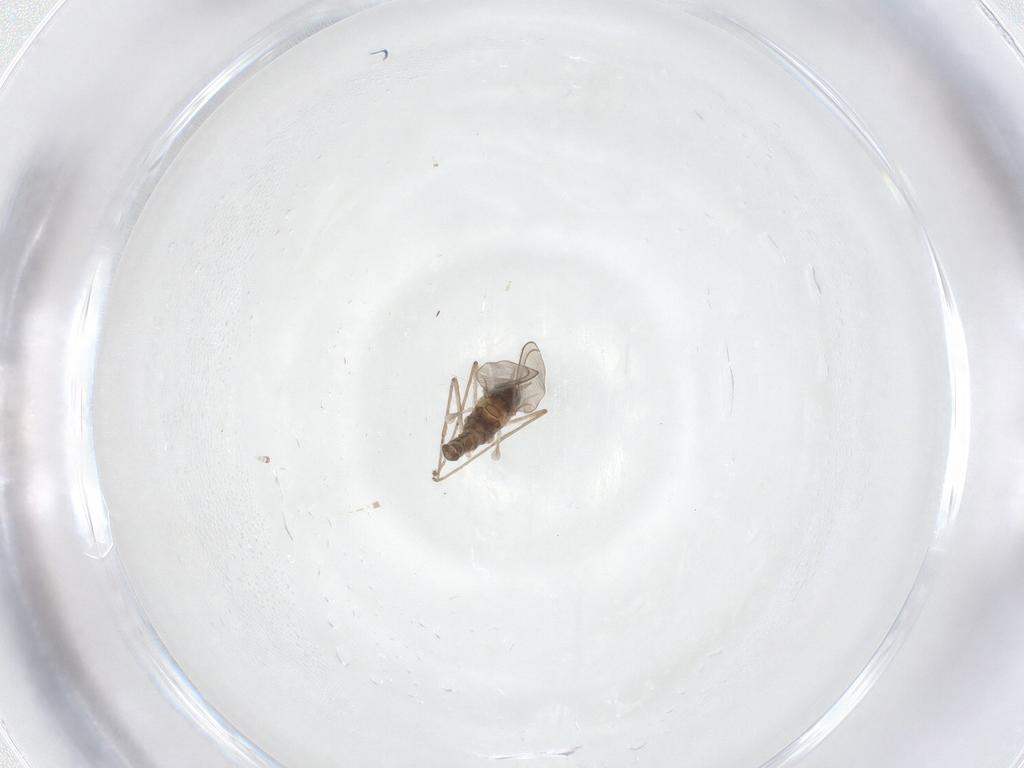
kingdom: Animalia
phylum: Arthropoda
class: Insecta
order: Diptera
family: Cecidomyiidae
